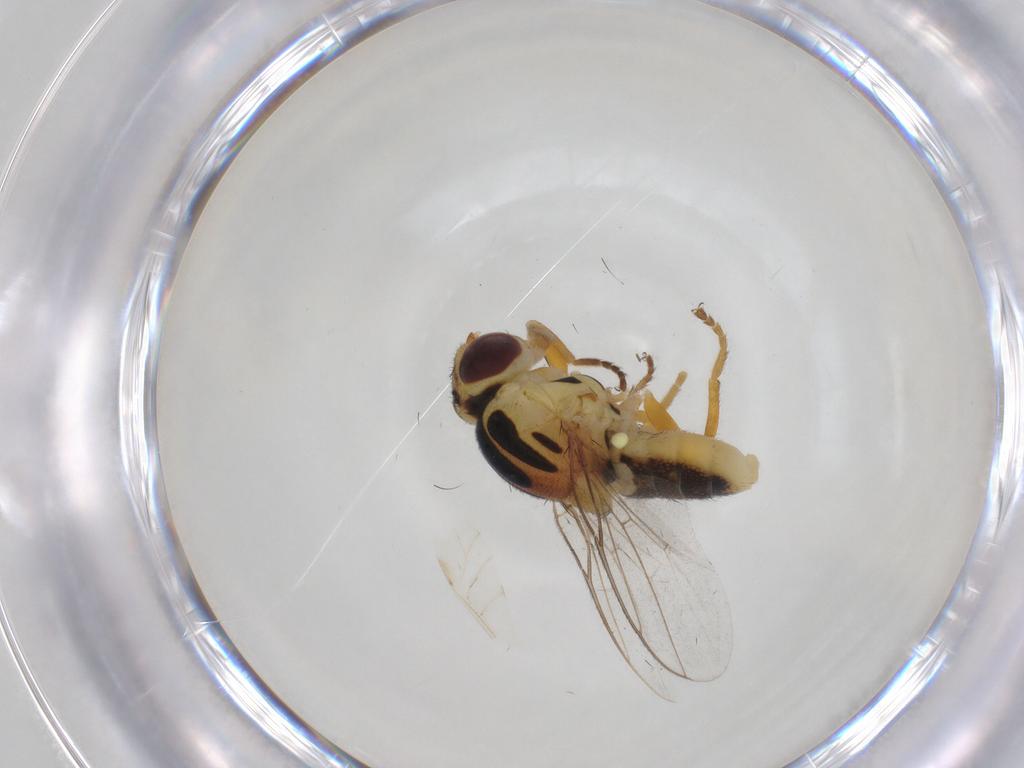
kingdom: Animalia
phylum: Arthropoda
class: Insecta
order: Diptera
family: Chloropidae
